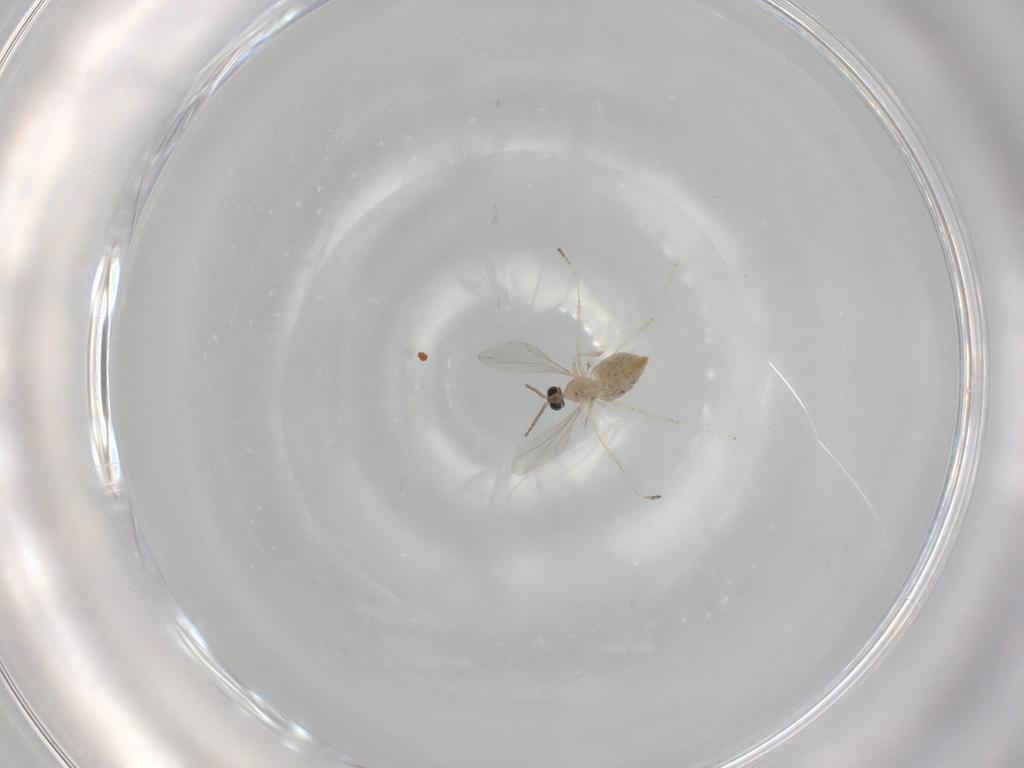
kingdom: Animalia
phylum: Arthropoda
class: Insecta
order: Diptera
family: Cecidomyiidae
